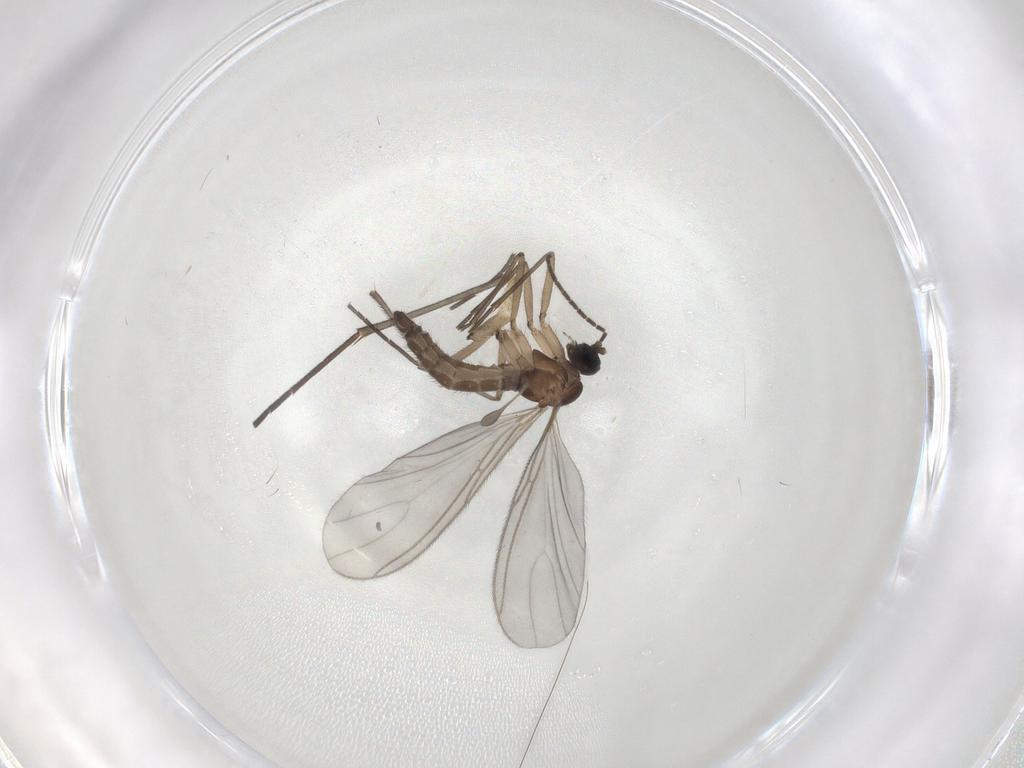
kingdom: Animalia
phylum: Arthropoda
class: Insecta
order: Diptera
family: Sciaridae
